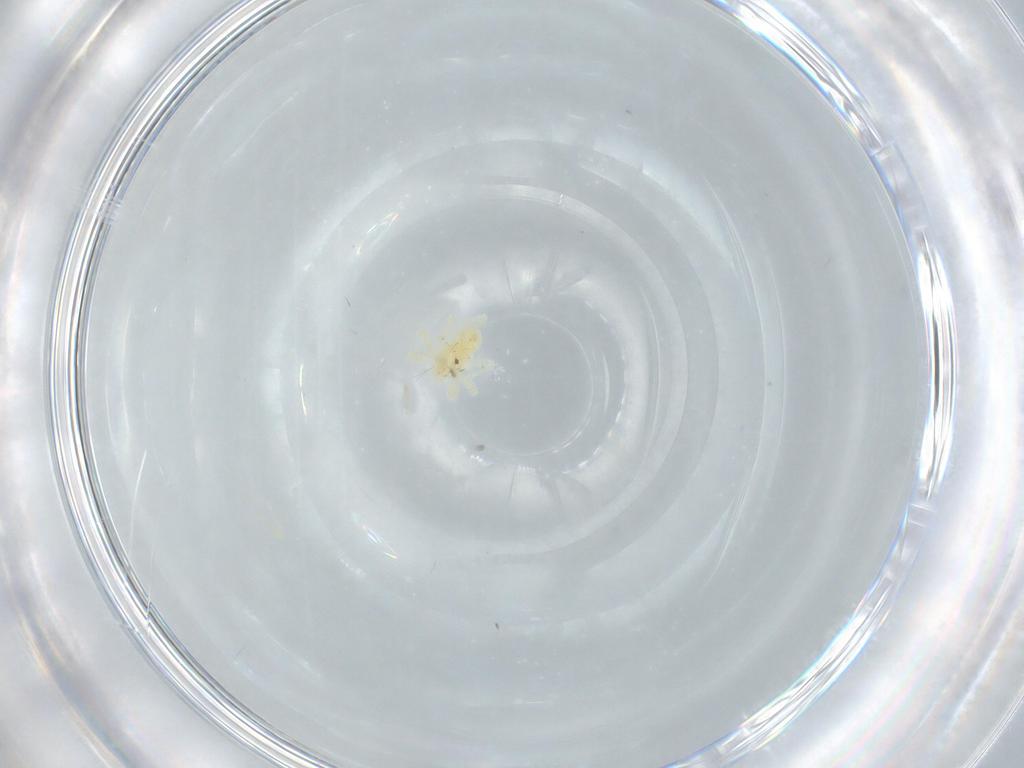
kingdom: Animalia
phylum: Arthropoda
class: Arachnida
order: Trombidiformes
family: Anystidae
